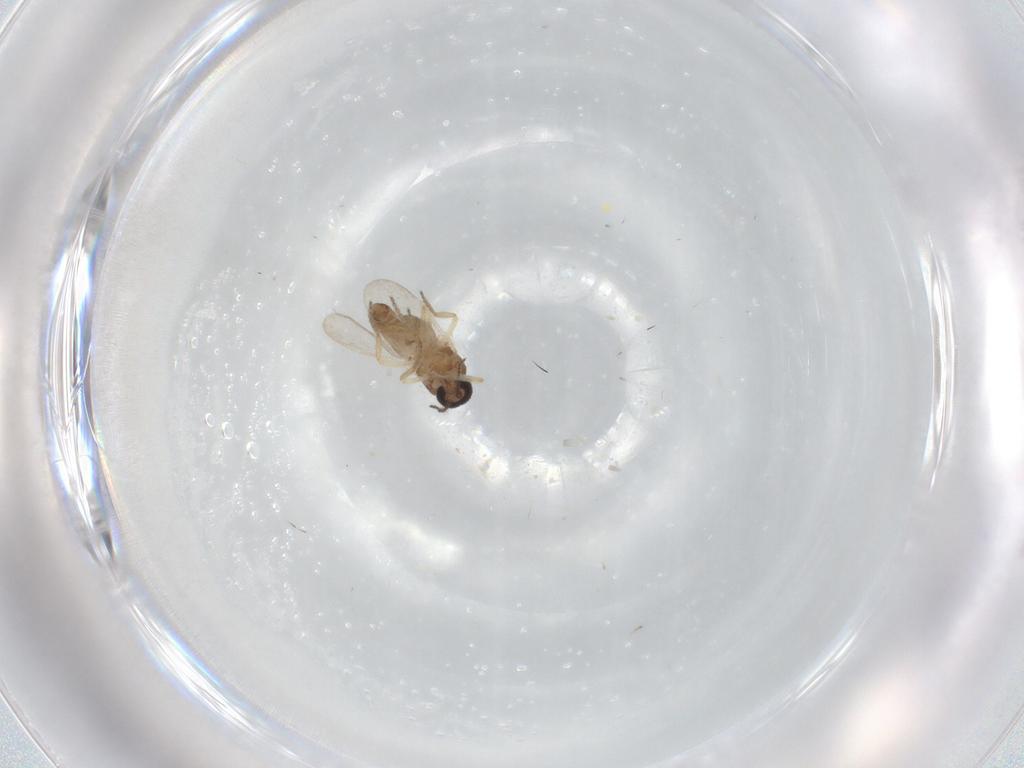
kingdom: Animalia
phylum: Arthropoda
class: Insecta
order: Diptera
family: Ceratopogonidae
